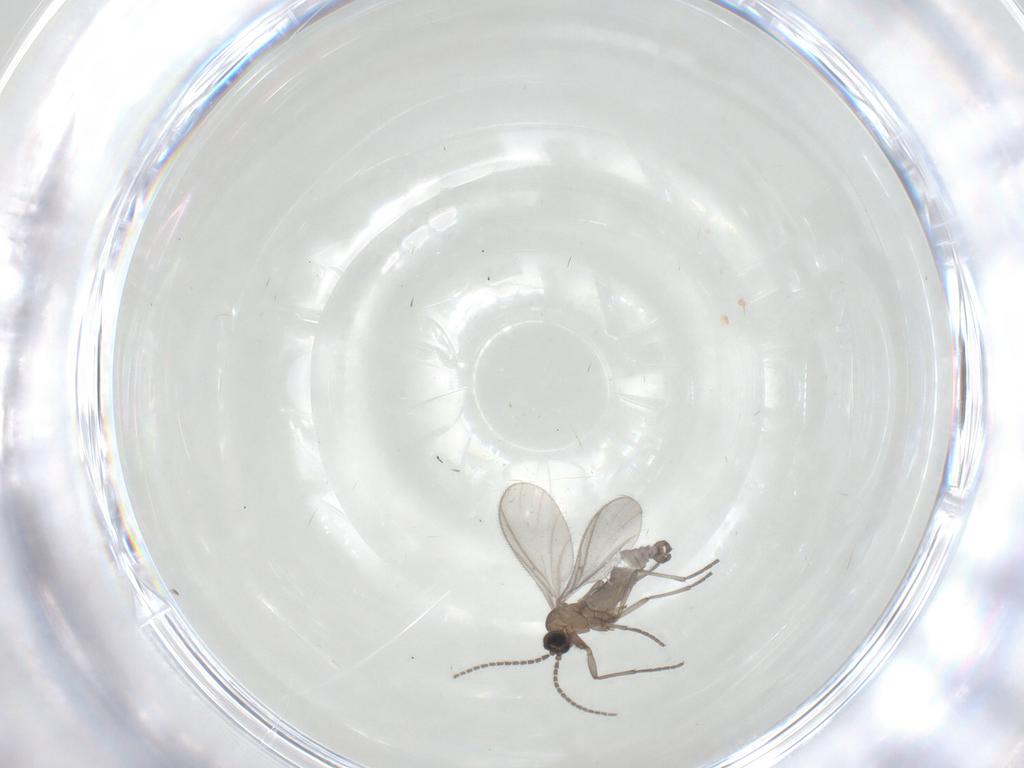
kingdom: Animalia
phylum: Arthropoda
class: Insecta
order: Diptera
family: Sciaridae
